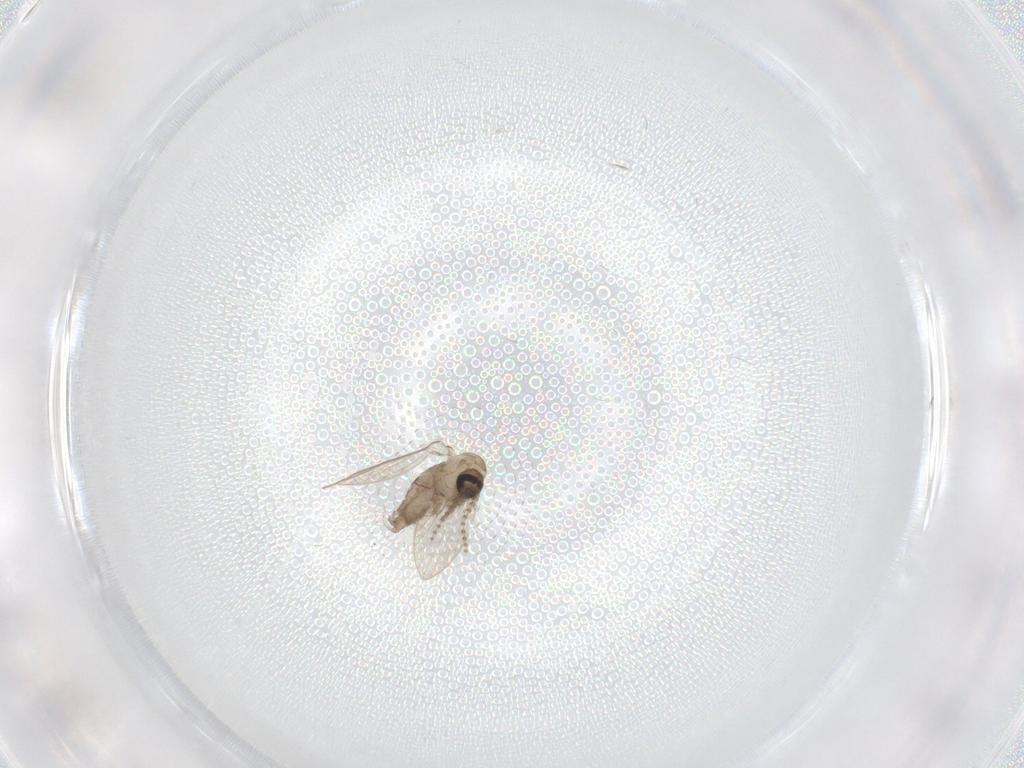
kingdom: Animalia
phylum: Arthropoda
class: Insecta
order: Diptera
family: Psychodidae
